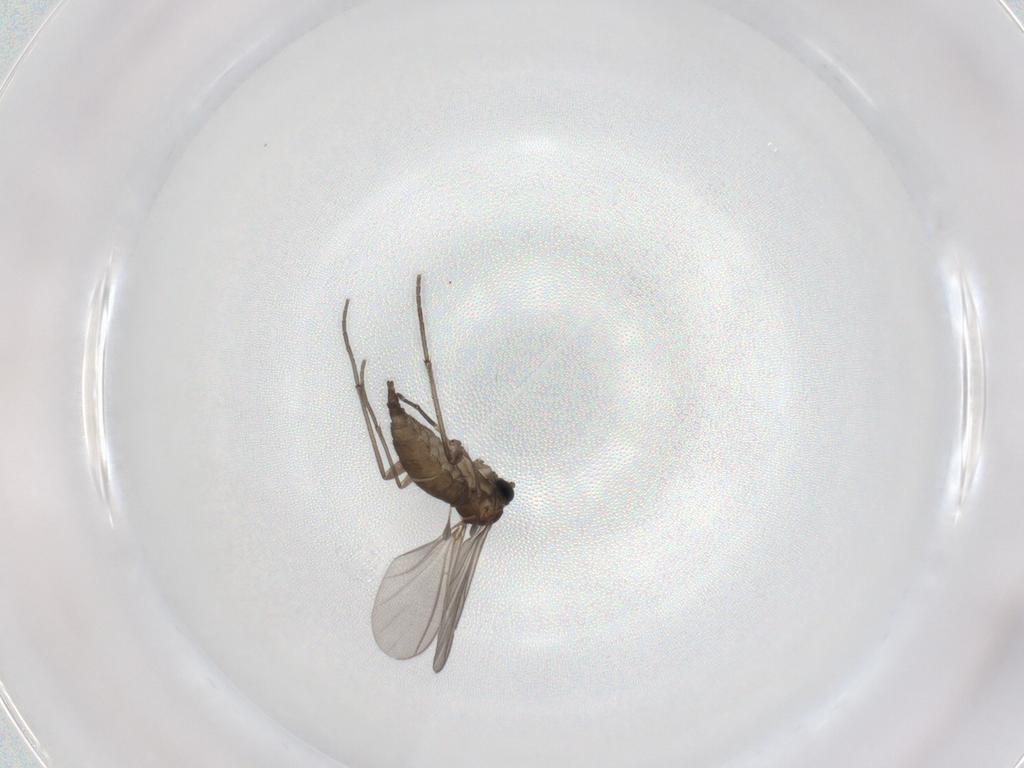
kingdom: Animalia
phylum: Arthropoda
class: Insecta
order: Diptera
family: Sciaridae
